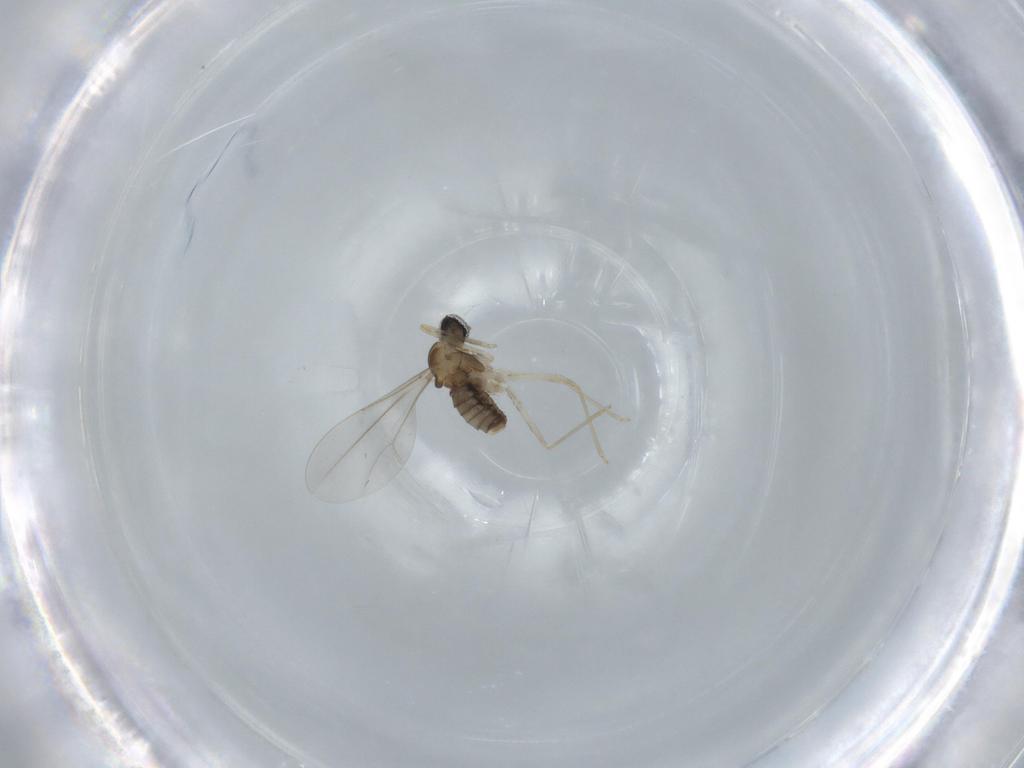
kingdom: Animalia
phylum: Arthropoda
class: Insecta
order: Diptera
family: Cecidomyiidae
